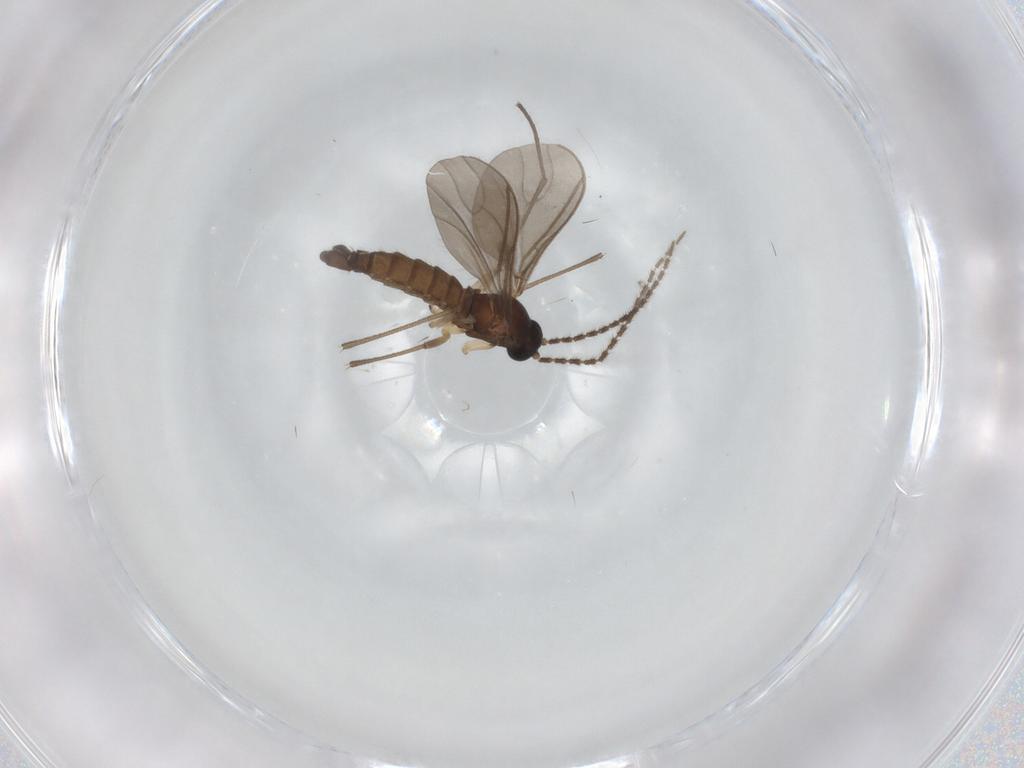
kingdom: Animalia
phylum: Arthropoda
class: Insecta
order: Diptera
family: Sciaridae
